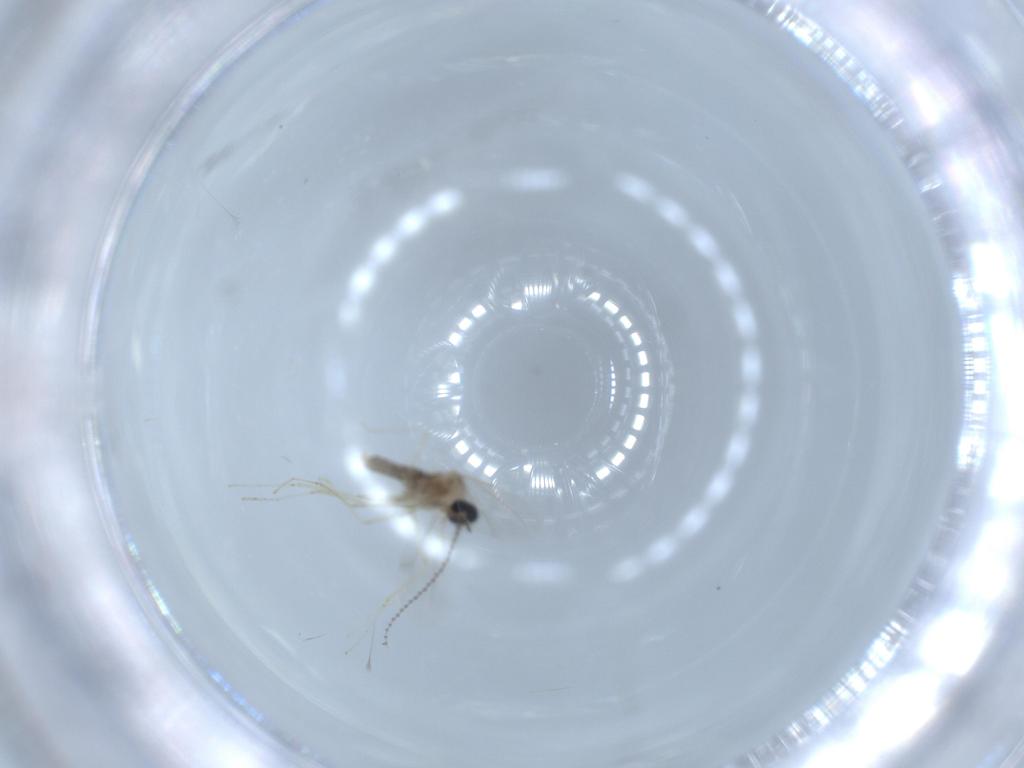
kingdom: Animalia
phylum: Arthropoda
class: Insecta
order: Diptera
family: Cecidomyiidae
